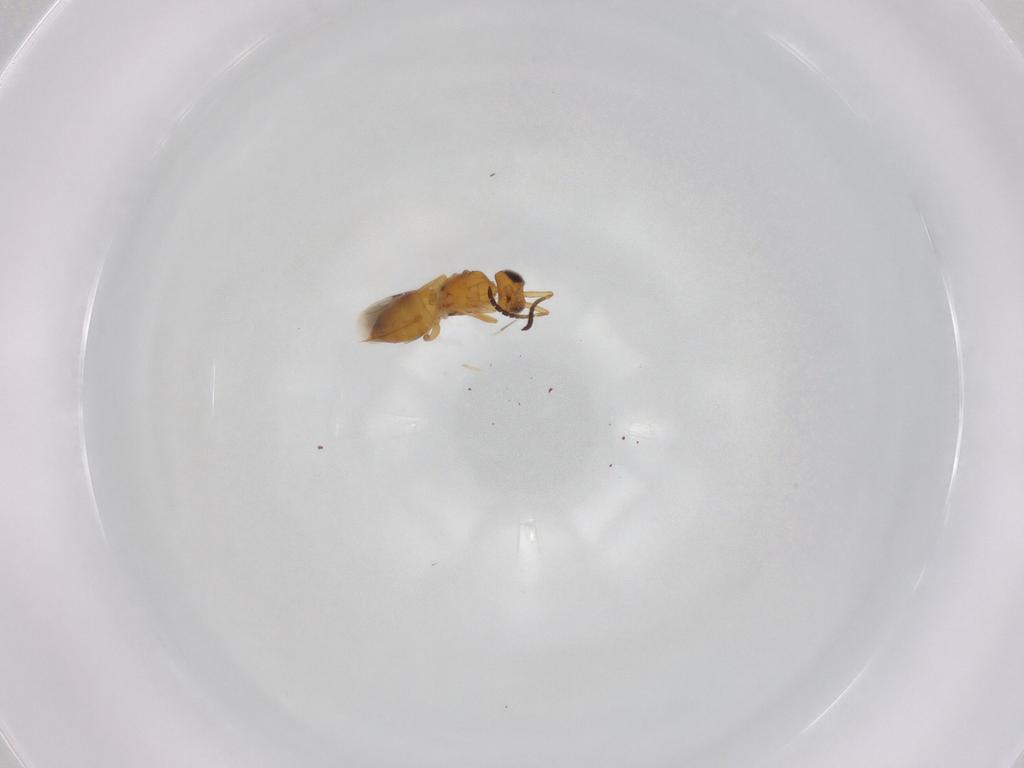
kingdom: Animalia
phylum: Arthropoda
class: Insecta
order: Hymenoptera
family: Ceraphronidae
